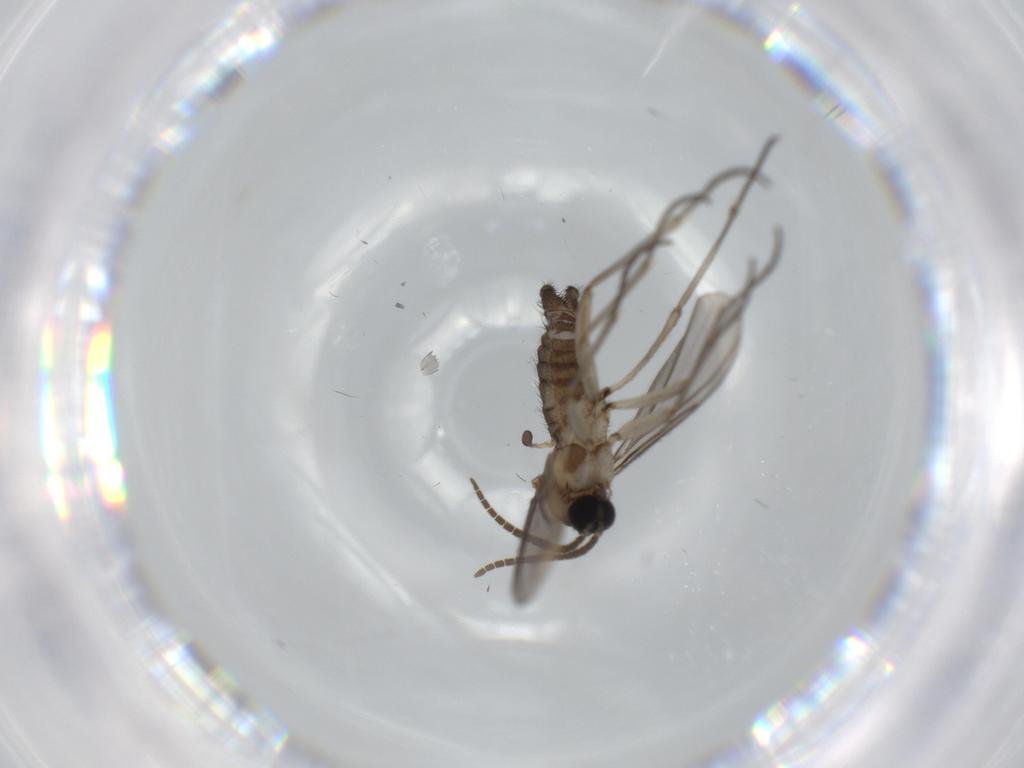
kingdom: Animalia
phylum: Arthropoda
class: Insecta
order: Diptera
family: Sciaridae
